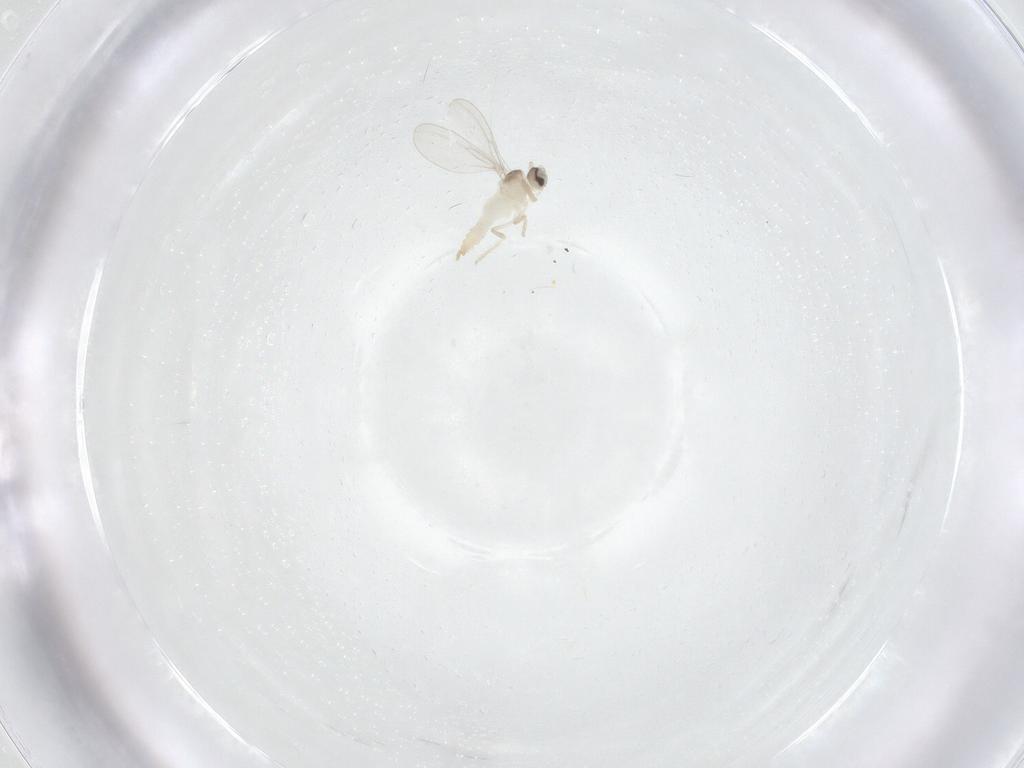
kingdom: Animalia
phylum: Arthropoda
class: Insecta
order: Diptera
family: Cecidomyiidae
